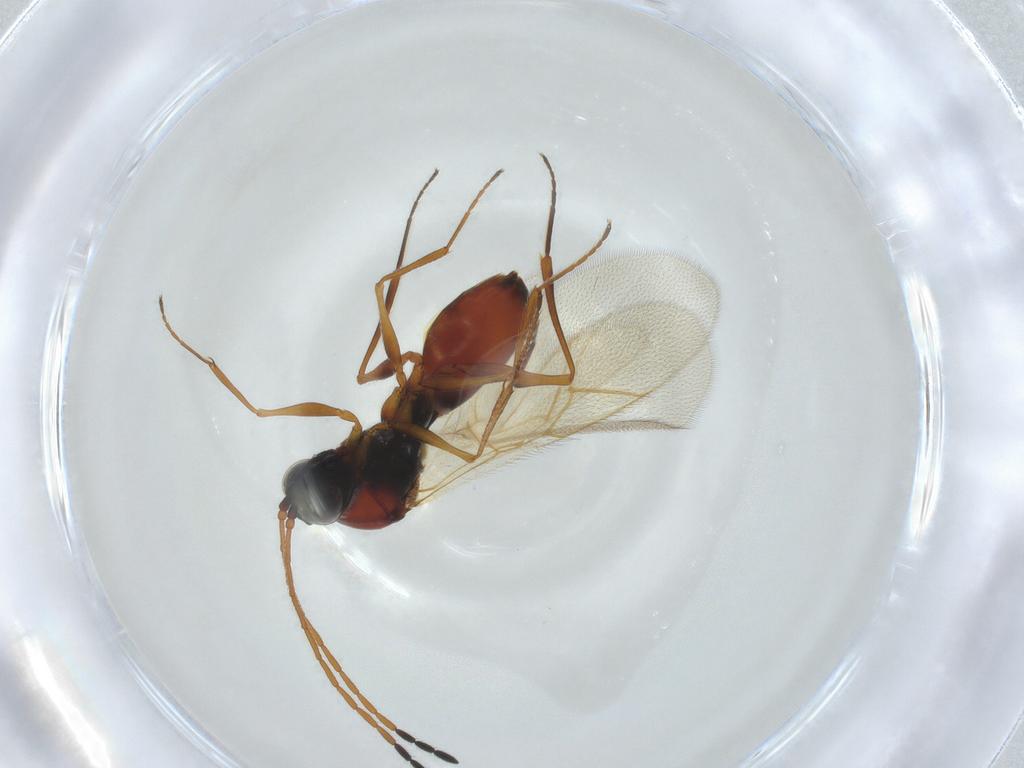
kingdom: Animalia
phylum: Arthropoda
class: Insecta
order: Hymenoptera
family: Figitidae
